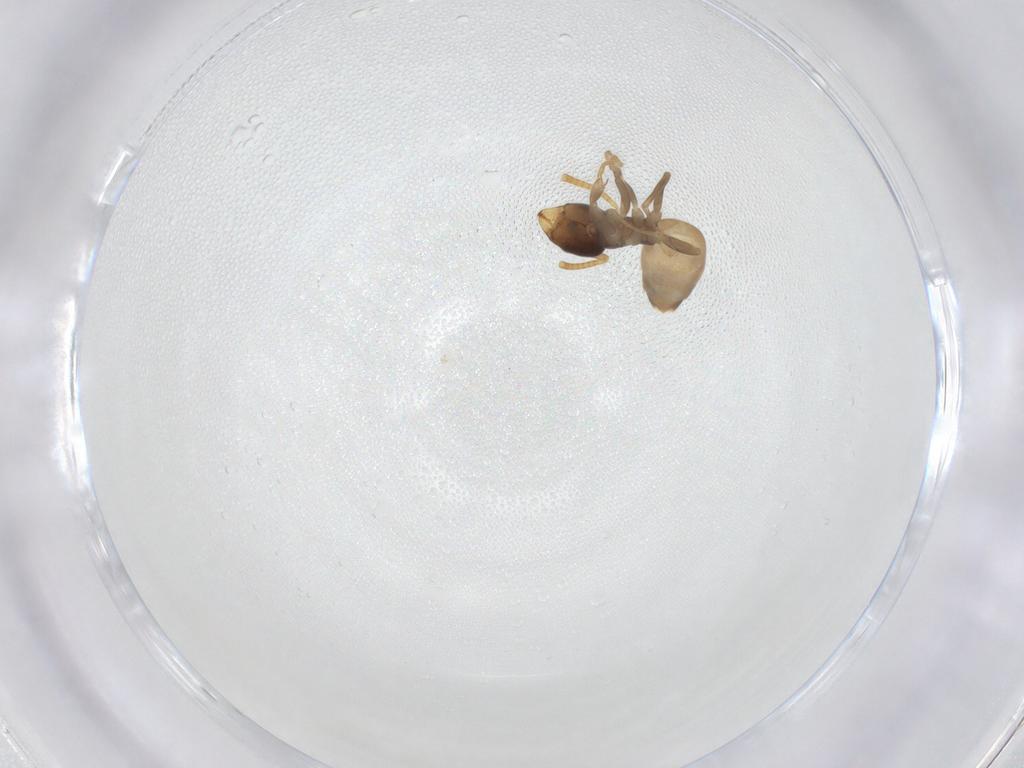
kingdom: Animalia
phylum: Arthropoda
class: Insecta
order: Hymenoptera
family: Formicidae
